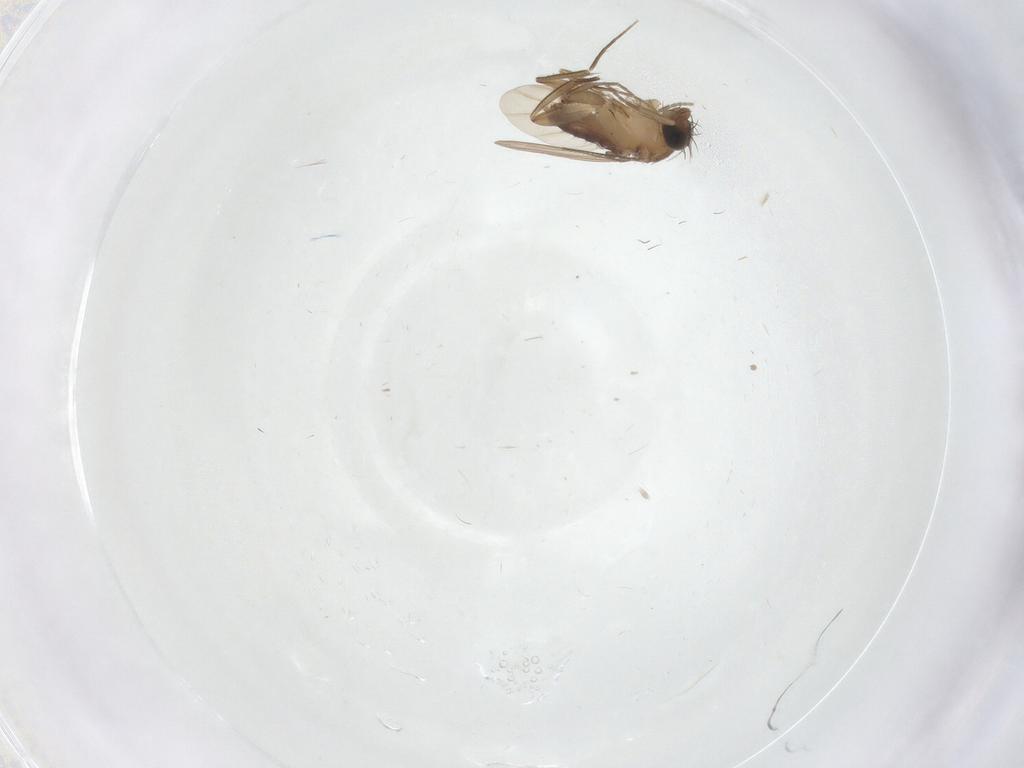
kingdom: Animalia
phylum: Arthropoda
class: Insecta
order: Diptera
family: Phoridae
